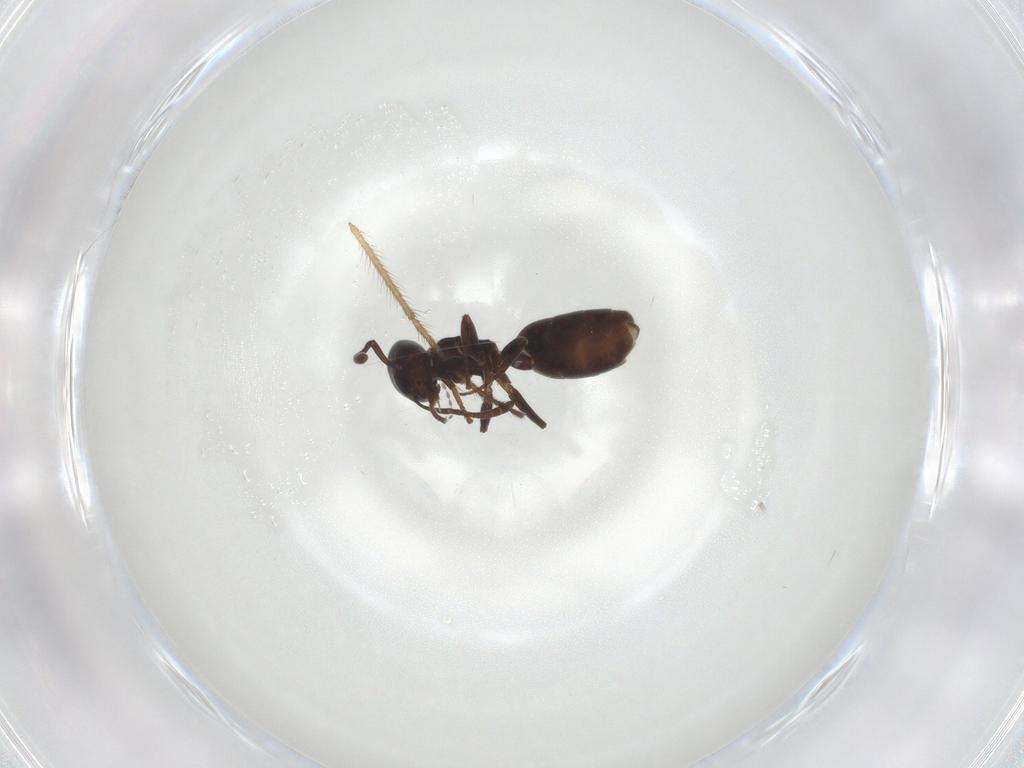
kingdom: Animalia
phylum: Arthropoda
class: Insecta
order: Hymenoptera
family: Formicidae
